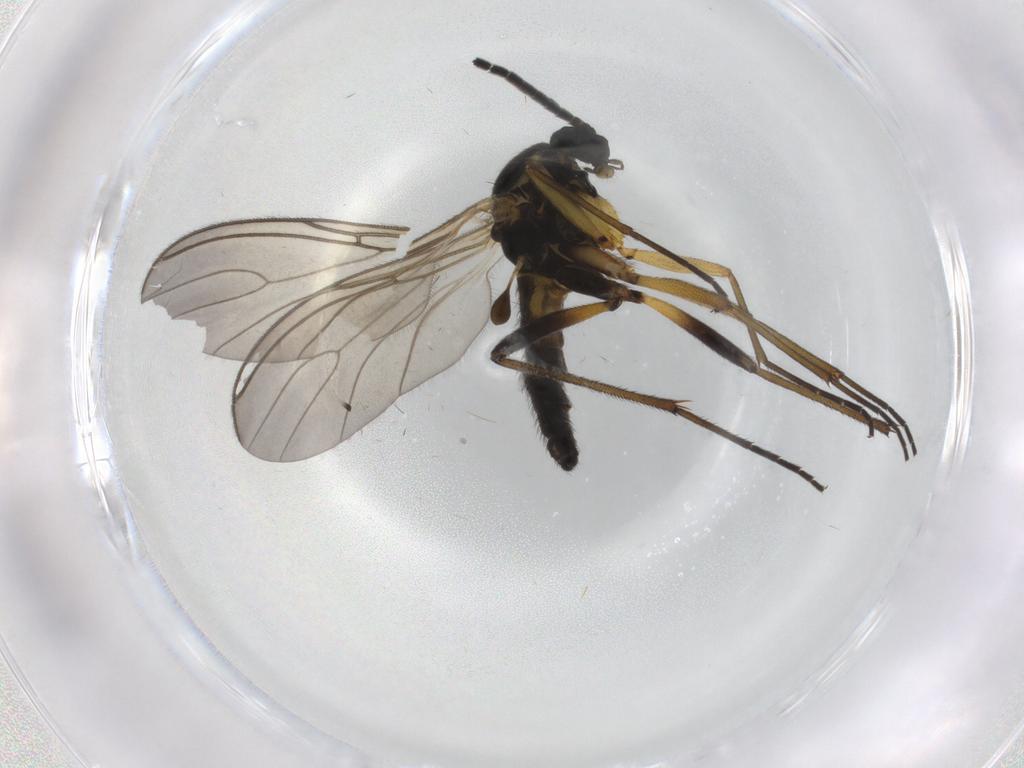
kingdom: Animalia
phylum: Arthropoda
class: Insecta
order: Diptera
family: Sciaridae
